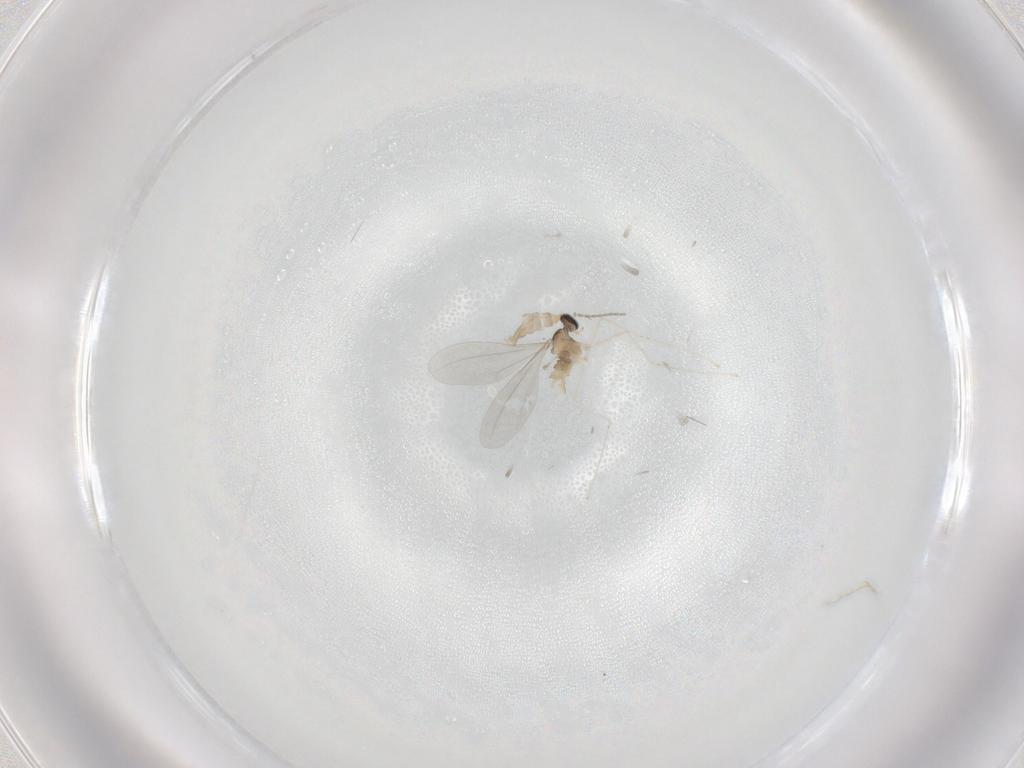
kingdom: Animalia
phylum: Arthropoda
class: Insecta
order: Diptera
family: Cecidomyiidae
